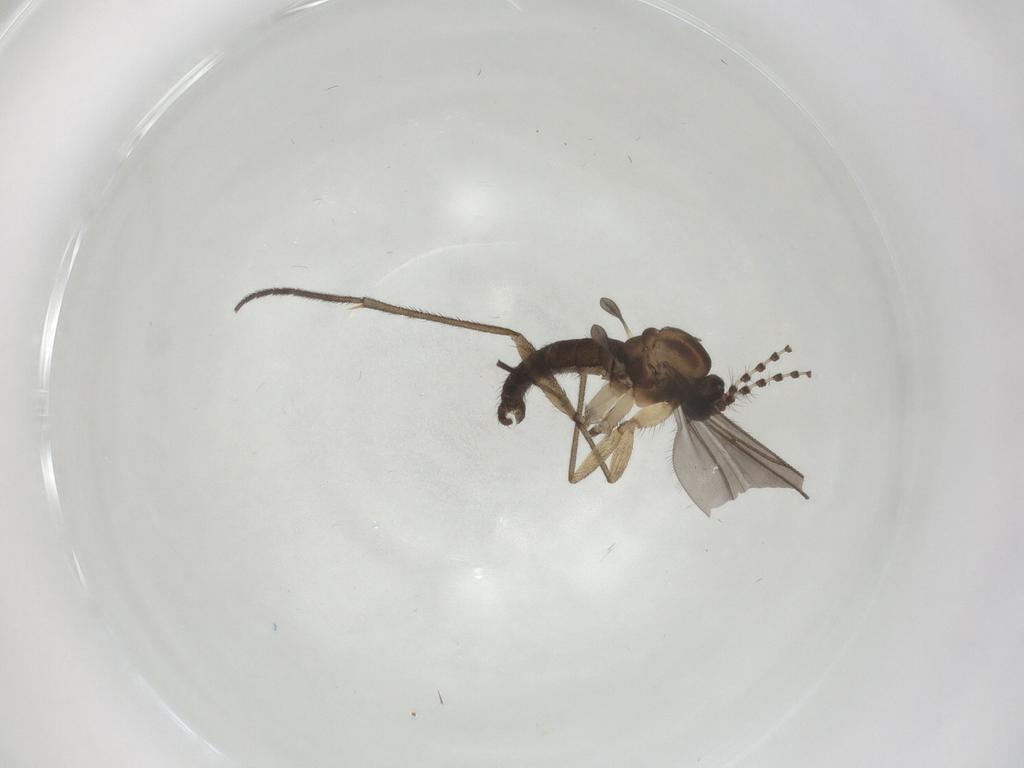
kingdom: Animalia
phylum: Arthropoda
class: Insecta
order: Diptera
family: Sciaridae
